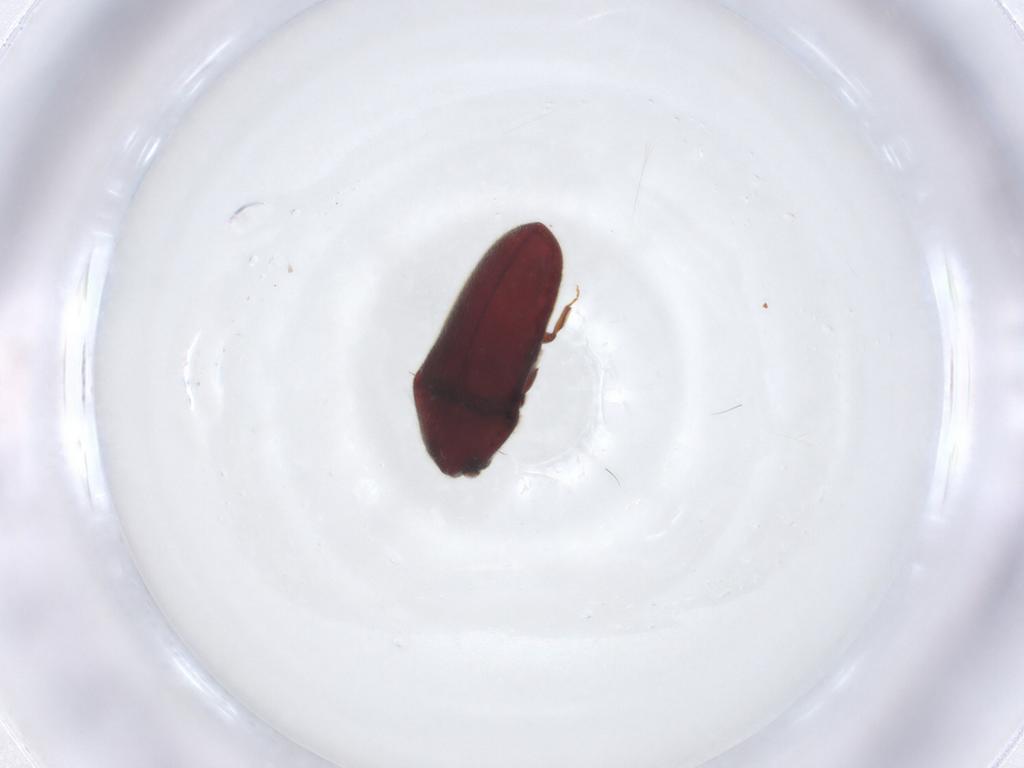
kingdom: Animalia
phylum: Arthropoda
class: Insecta
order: Coleoptera
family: Throscidae
